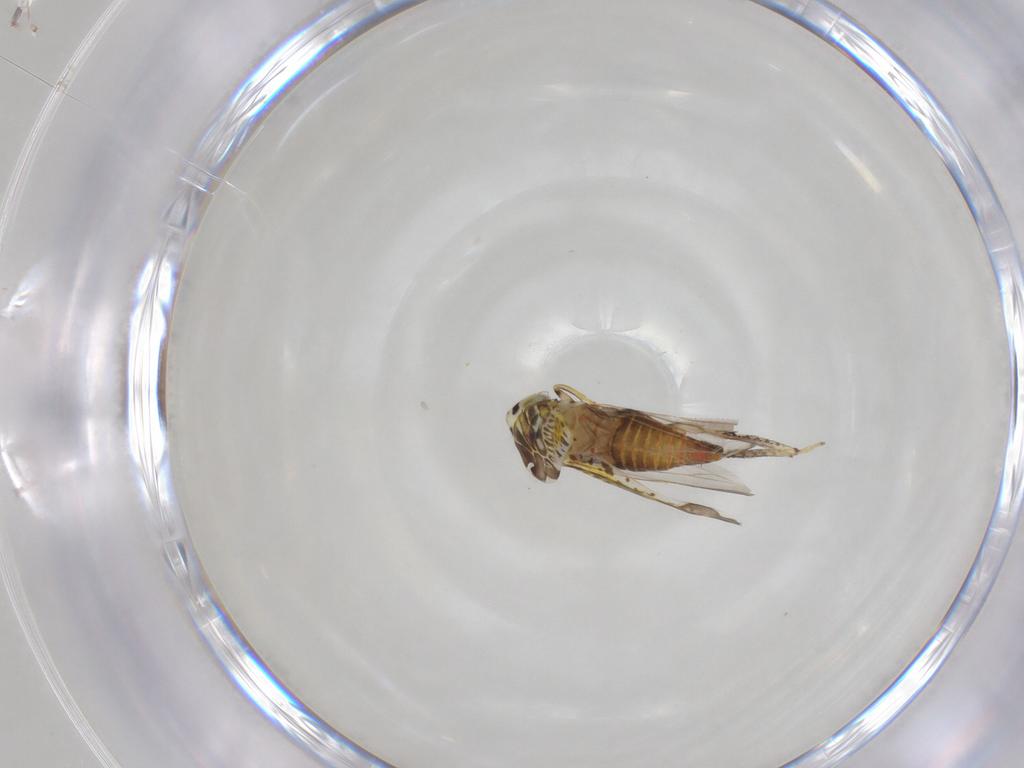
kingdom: Animalia
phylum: Arthropoda
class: Insecta
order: Hemiptera
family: Cicadellidae
